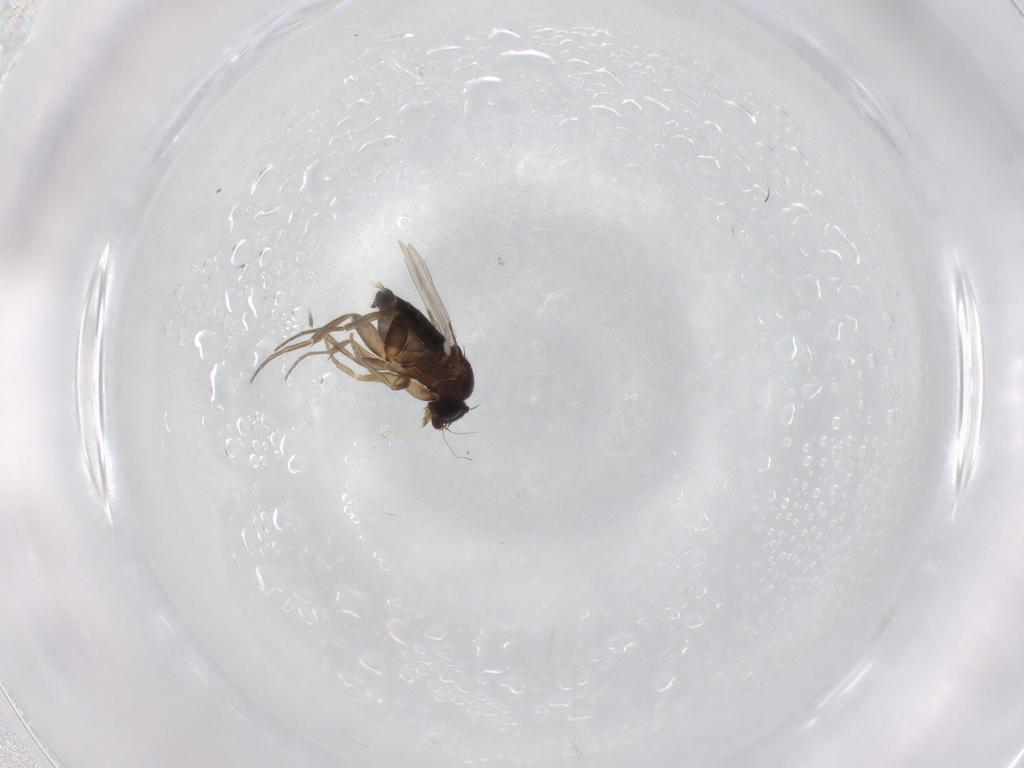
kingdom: Animalia
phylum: Arthropoda
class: Insecta
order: Diptera
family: Phoridae
